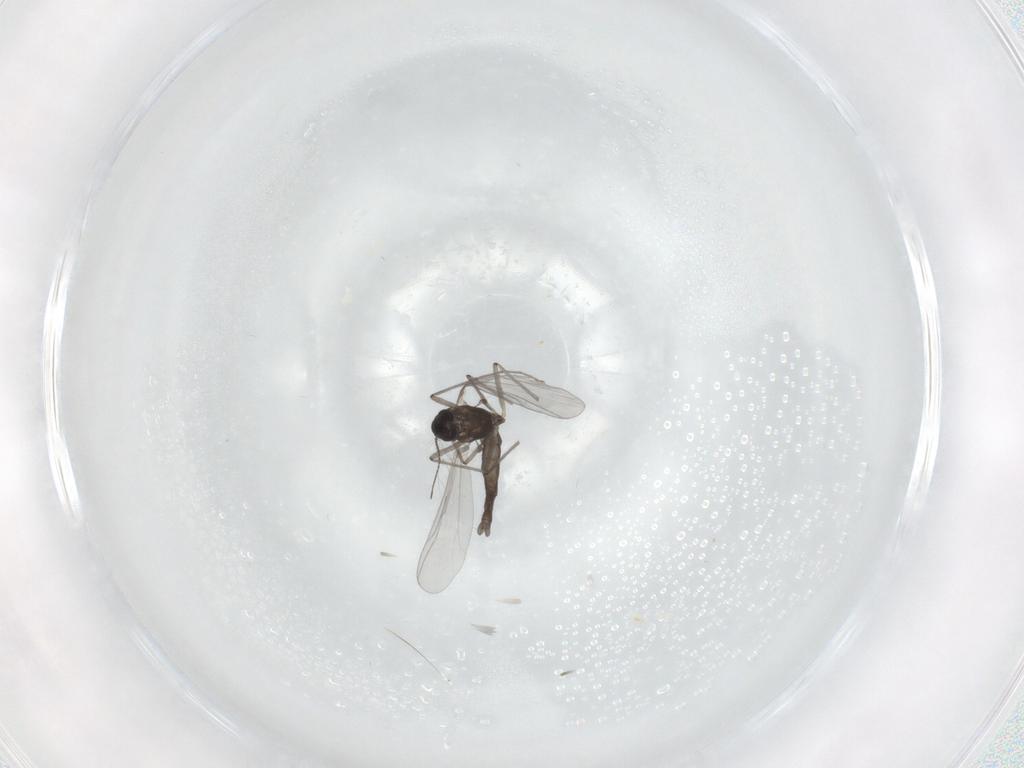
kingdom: Animalia
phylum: Arthropoda
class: Insecta
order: Diptera
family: Chironomidae
